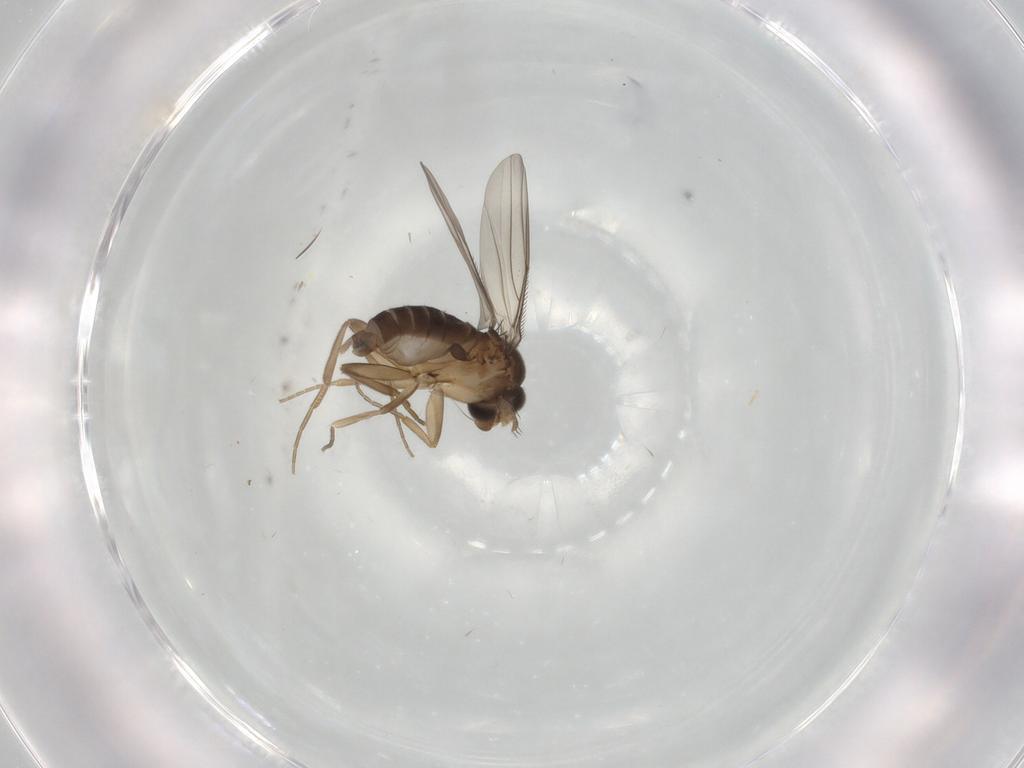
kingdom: Animalia
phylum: Arthropoda
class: Insecta
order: Diptera
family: Phoridae
